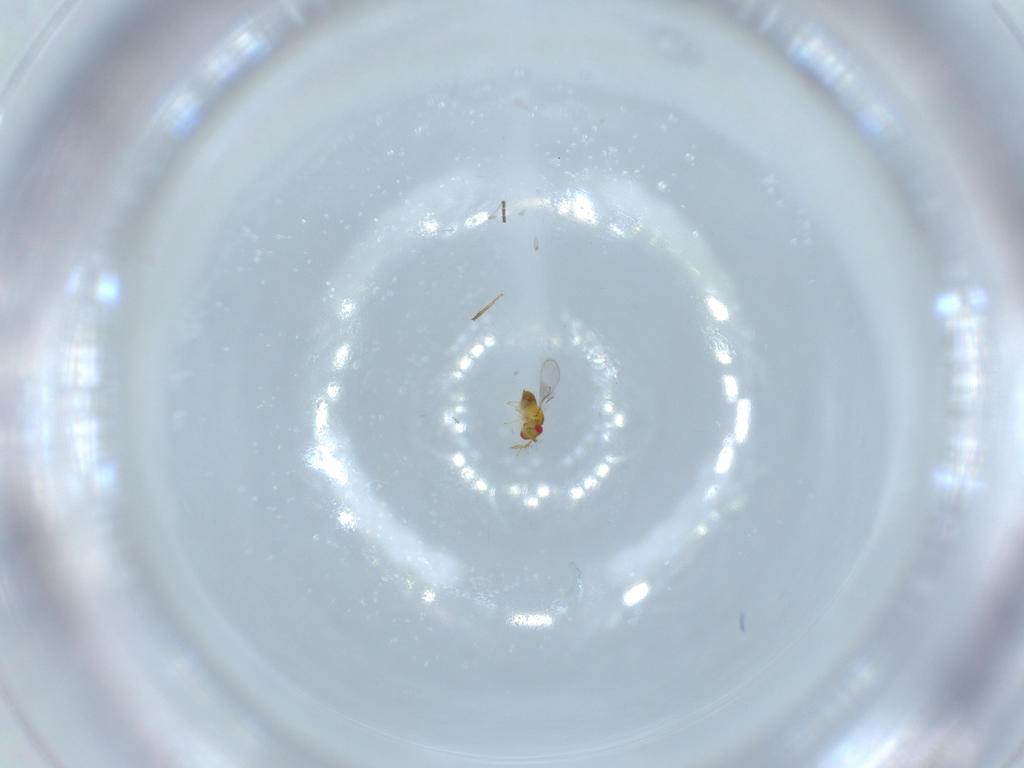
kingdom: Animalia
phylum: Arthropoda
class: Insecta
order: Hymenoptera
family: Trichogrammatidae
